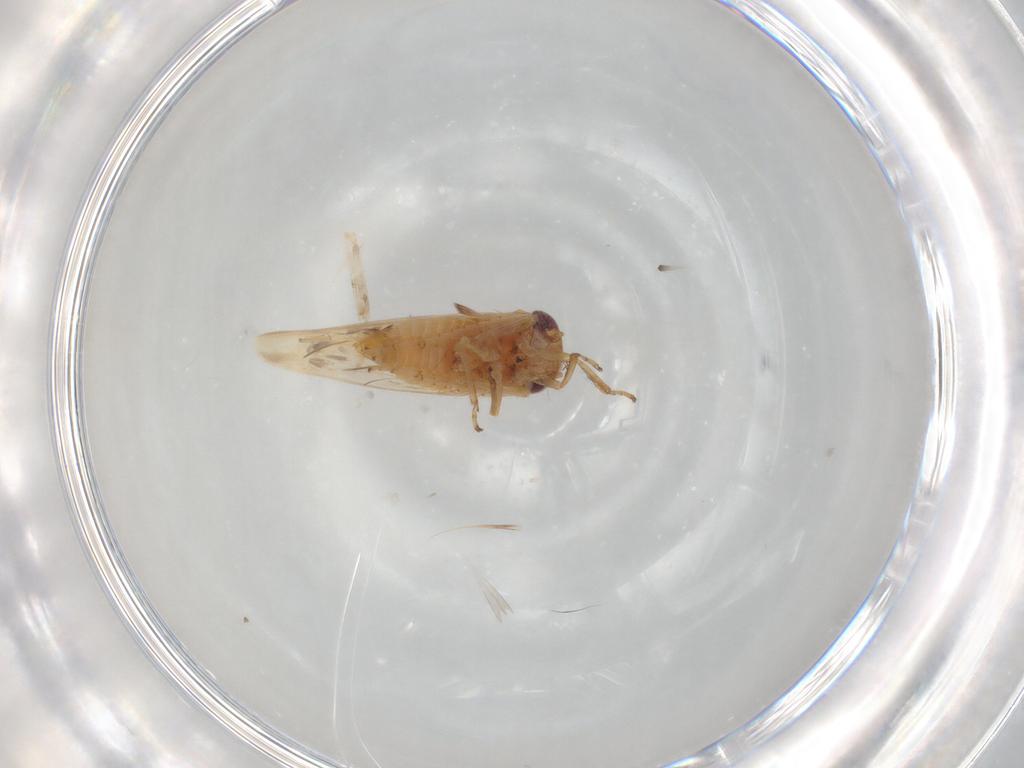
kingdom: Animalia
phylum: Arthropoda
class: Insecta
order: Hemiptera
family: Cicadellidae
